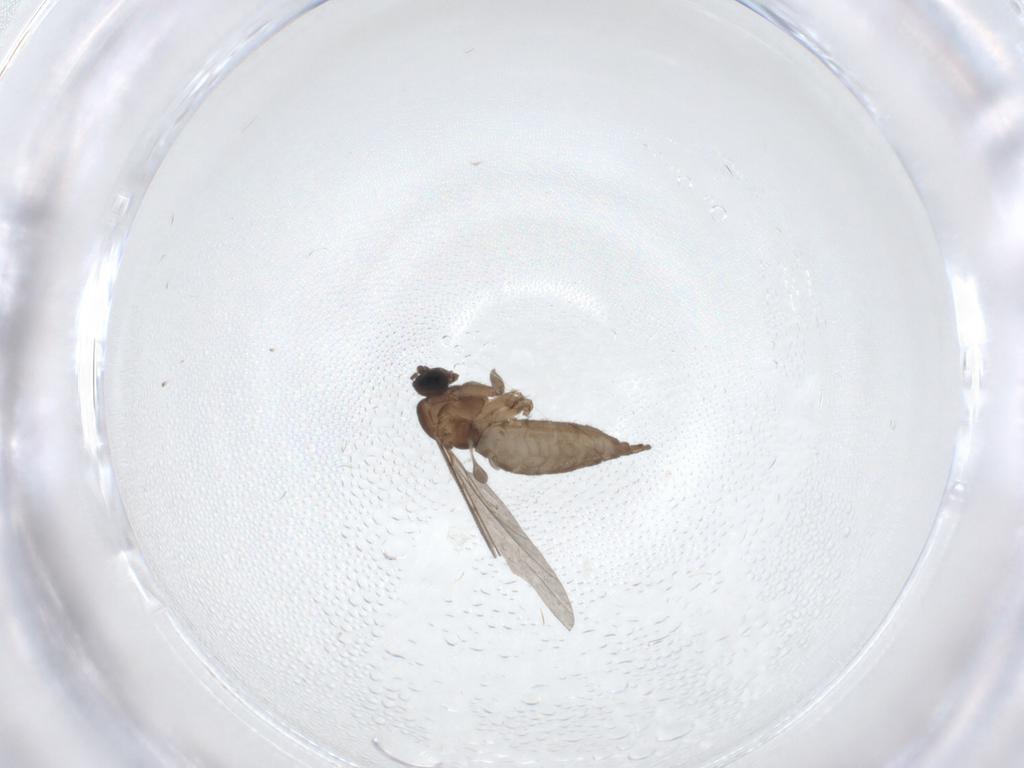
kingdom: Animalia
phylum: Arthropoda
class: Insecta
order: Diptera
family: Sciaridae
